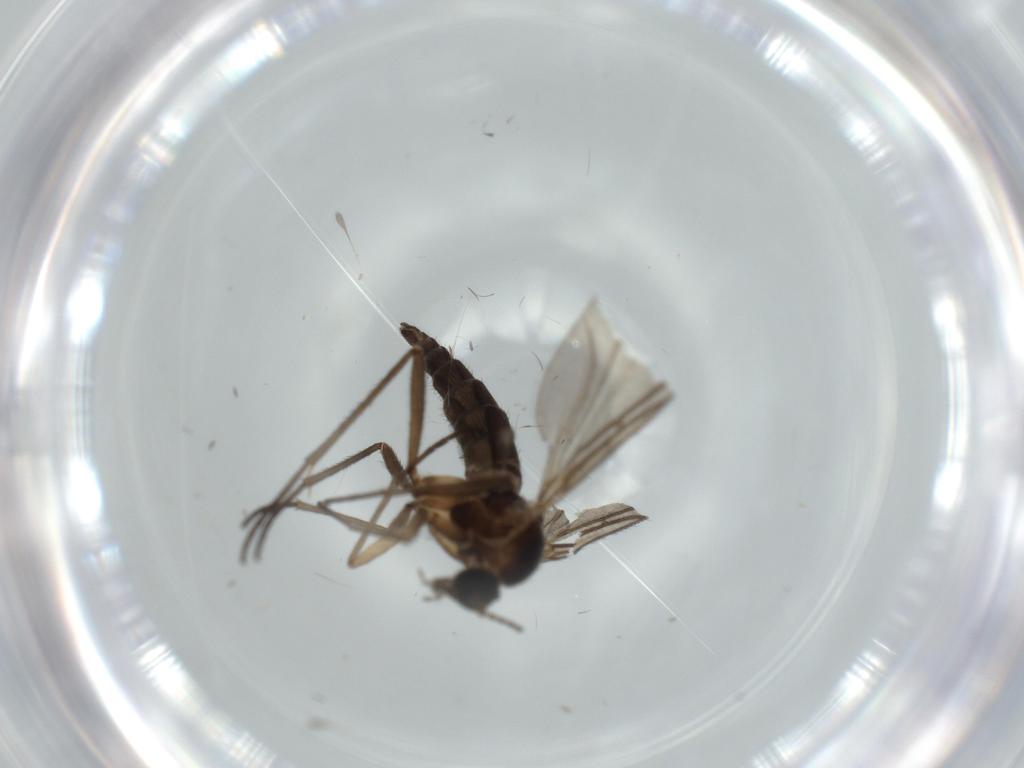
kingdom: Animalia
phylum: Arthropoda
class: Insecta
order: Diptera
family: Sciaridae
